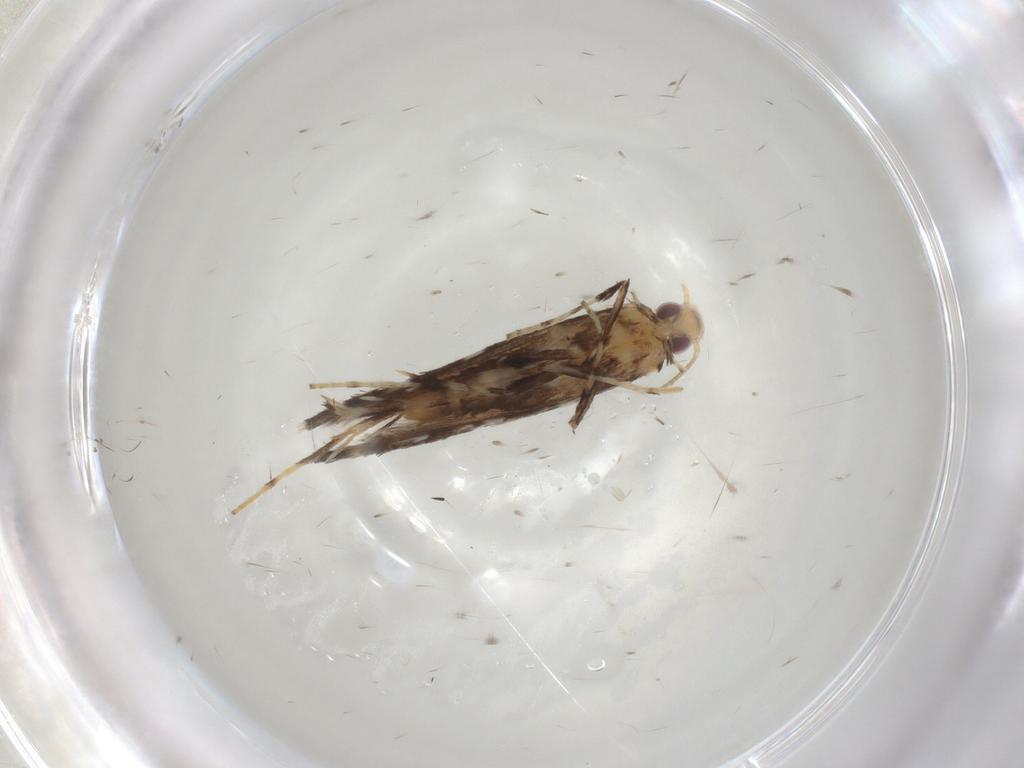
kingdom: Animalia
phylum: Arthropoda
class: Insecta
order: Lepidoptera
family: Gracillariidae
